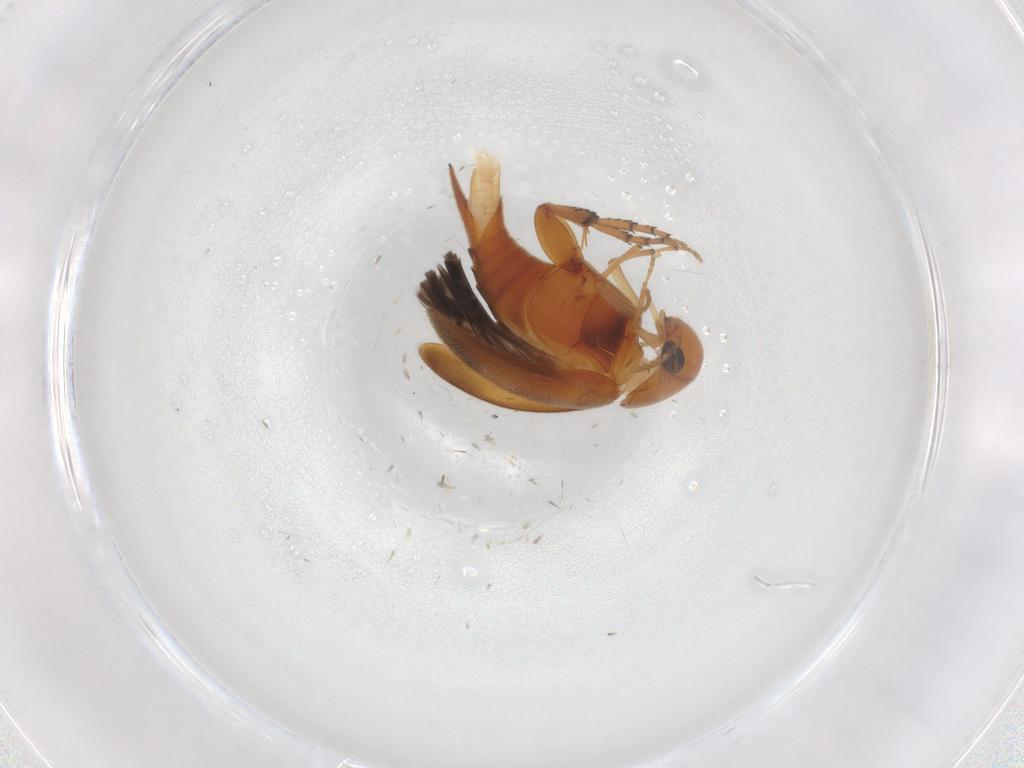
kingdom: Animalia
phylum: Arthropoda
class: Insecta
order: Coleoptera
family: Mordellidae
